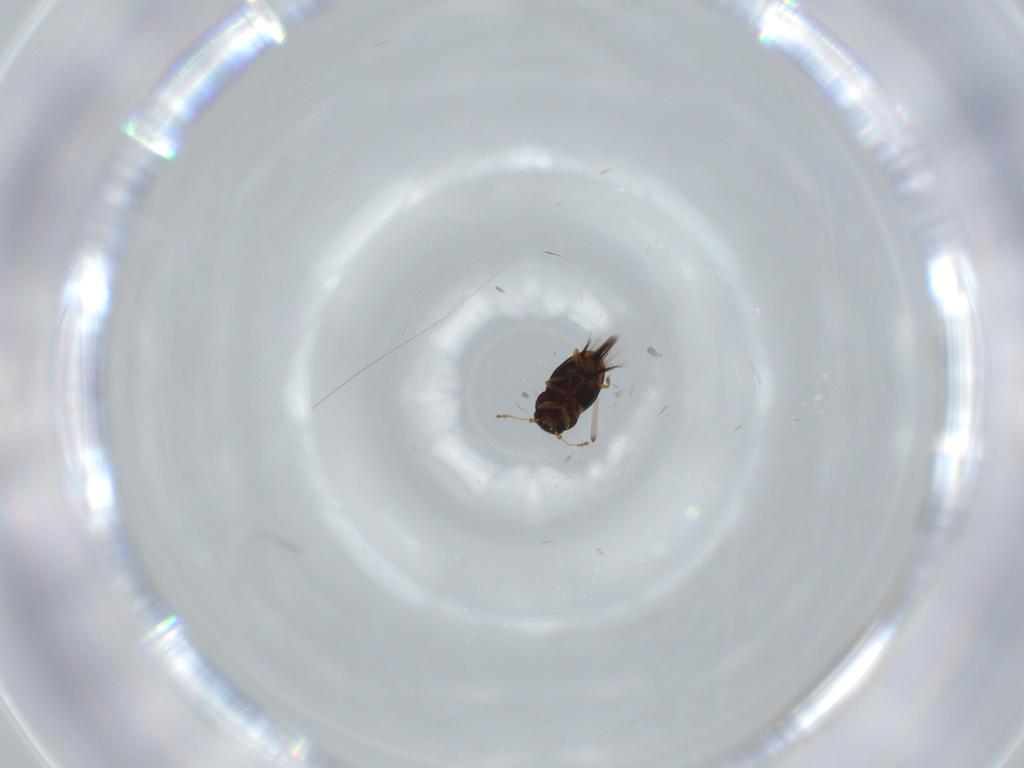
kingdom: Animalia
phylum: Arthropoda
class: Insecta
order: Coleoptera
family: Ptiliidae
